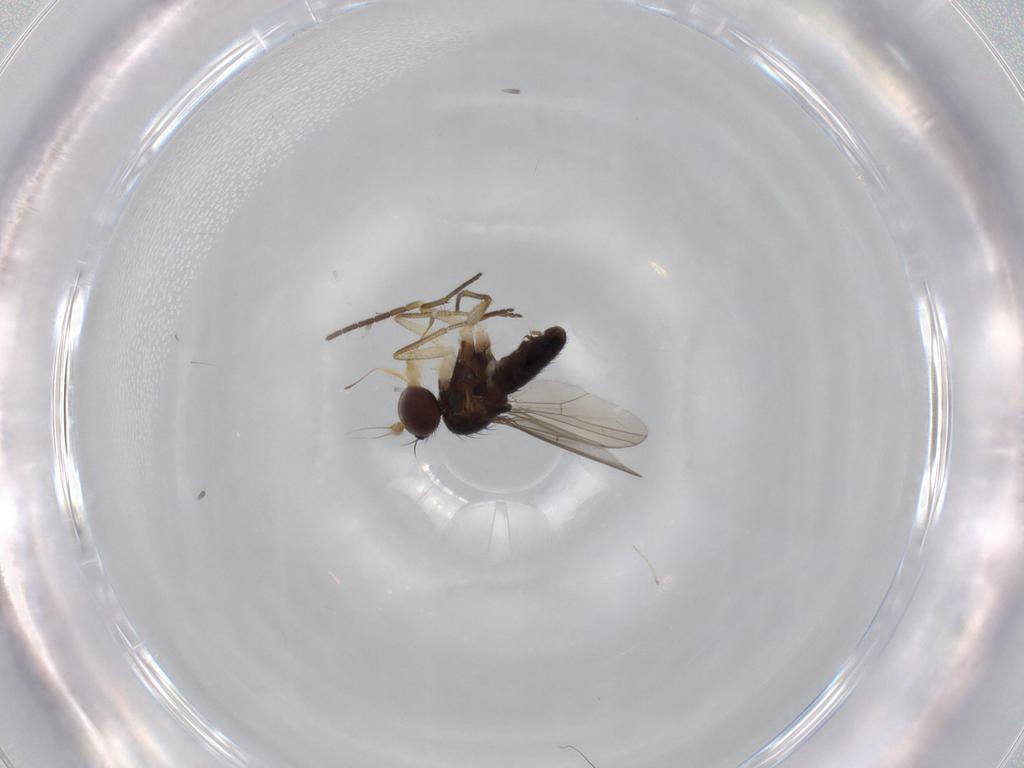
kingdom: Animalia
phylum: Arthropoda
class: Insecta
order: Diptera
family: Dolichopodidae
